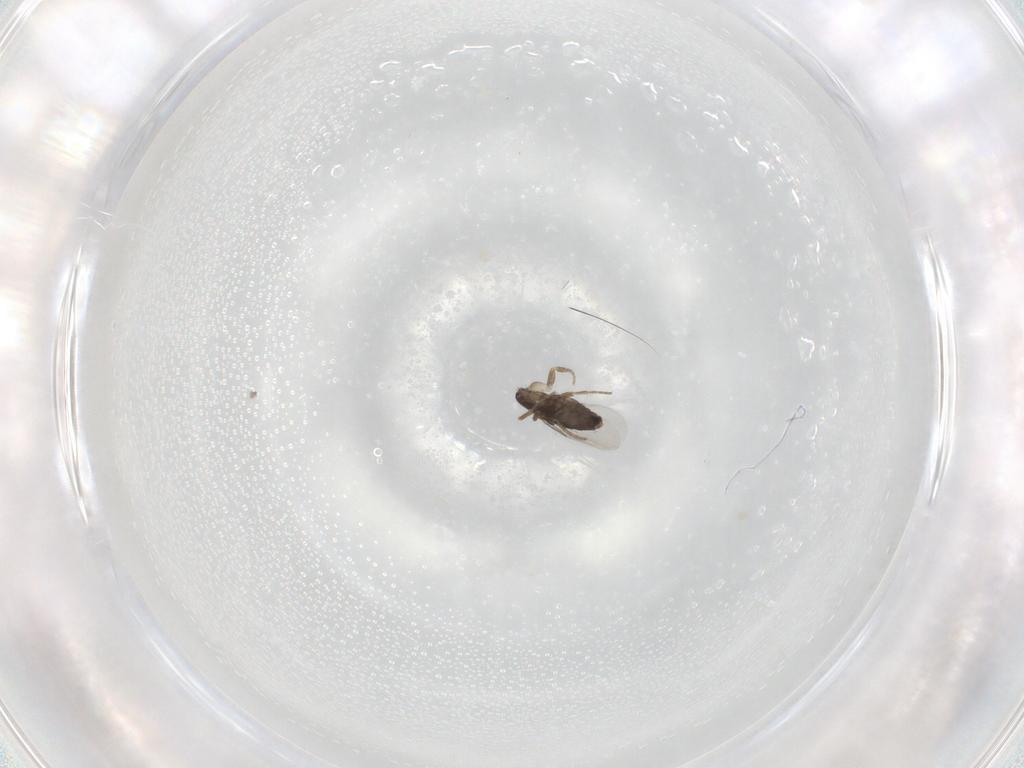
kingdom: Animalia
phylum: Arthropoda
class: Insecta
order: Diptera
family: Phoridae
